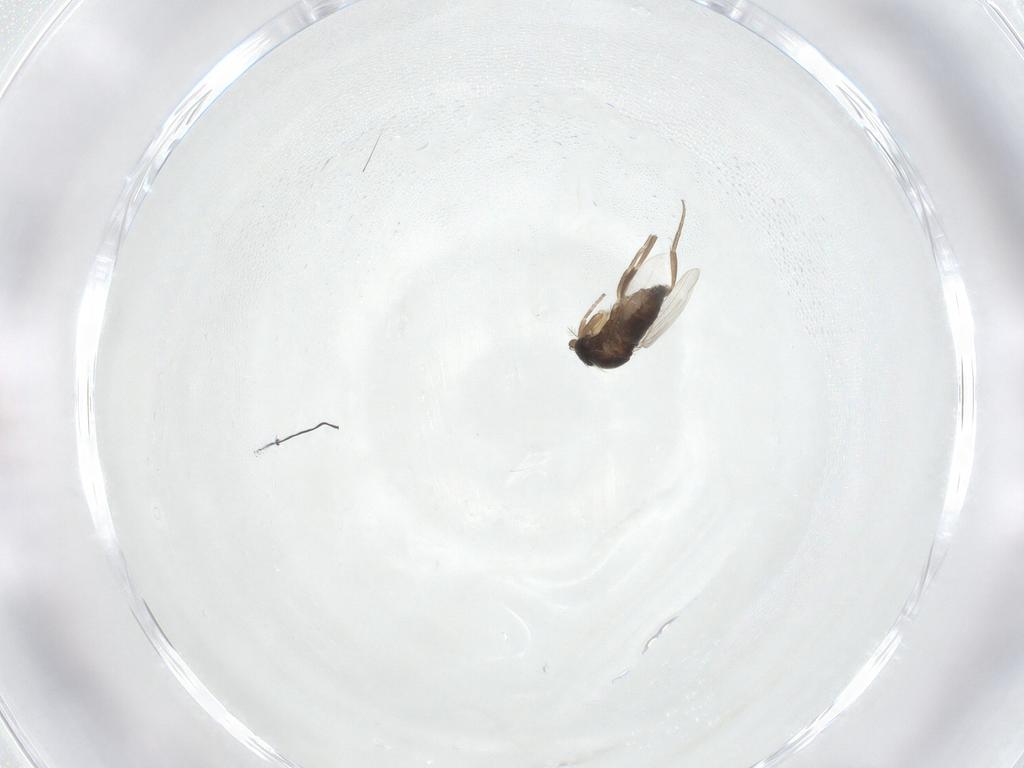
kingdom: Animalia
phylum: Arthropoda
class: Insecta
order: Diptera
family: Phoridae
